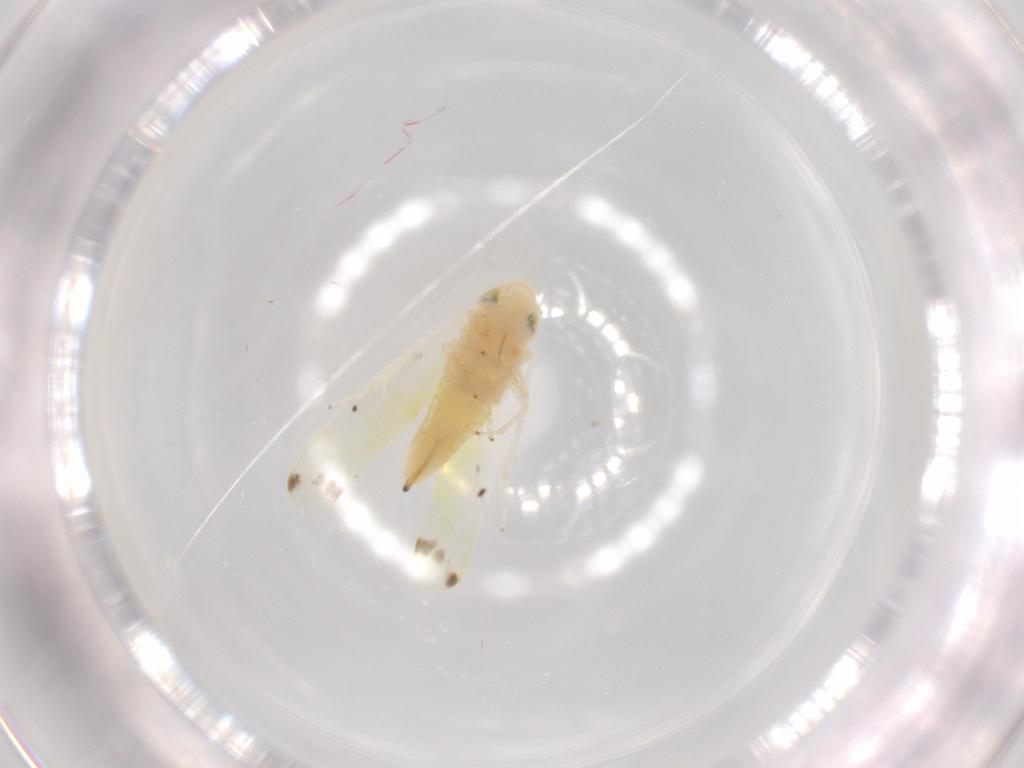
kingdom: Animalia
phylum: Arthropoda
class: Insecta
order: Hemiptera
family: Cicadellidae
